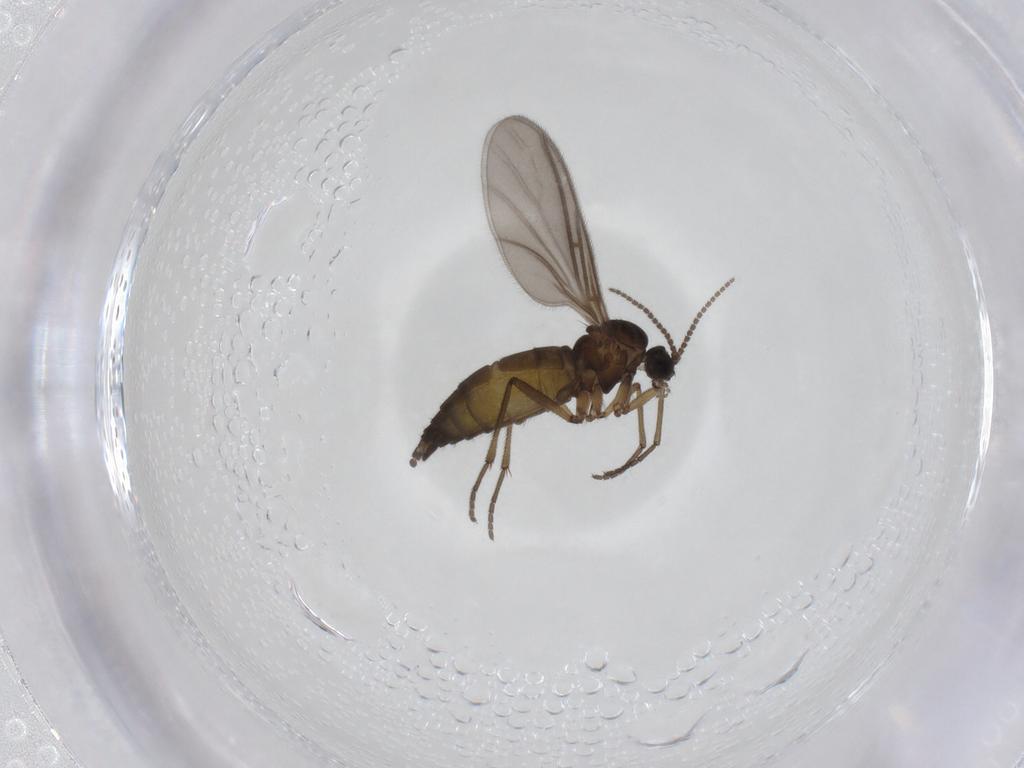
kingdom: Animalia
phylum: Arthropoda
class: Insecta
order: Diptera
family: Sciaridae
